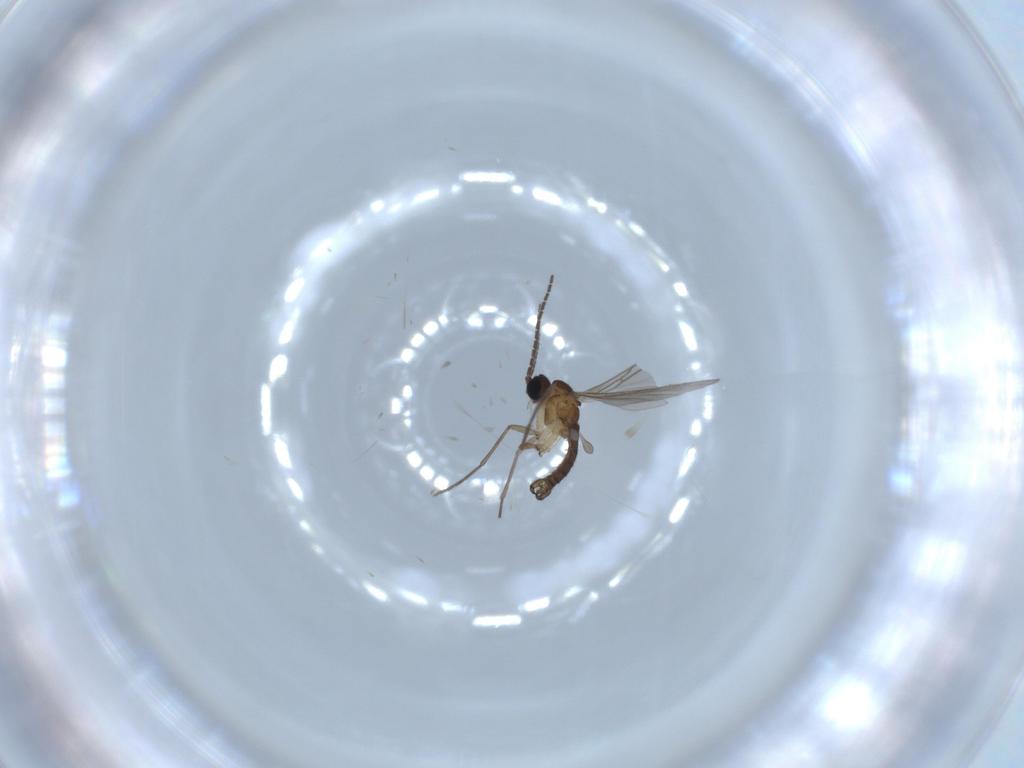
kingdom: Animalia
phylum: Arthropoda
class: Insecta
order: Diptera
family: Sciaridae
